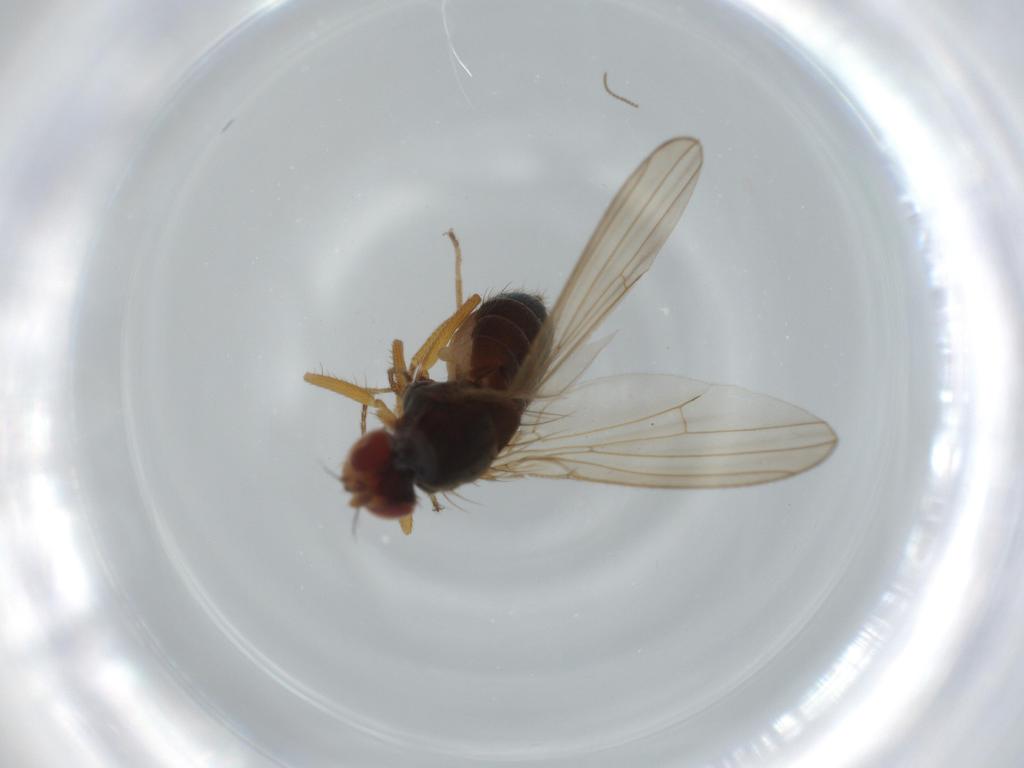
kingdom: Animalia
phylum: Arthropoda
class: Insecta
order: Diptera
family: Drosophilidae
